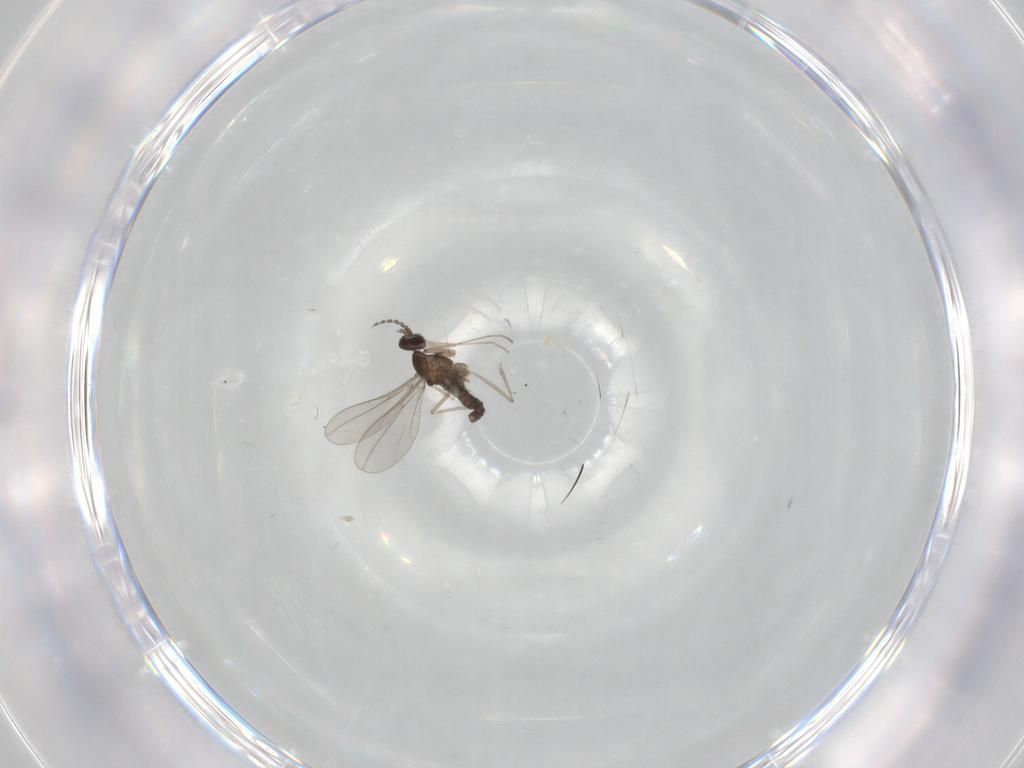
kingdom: Animalia
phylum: Arthropoda
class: Insecta
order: Diptera
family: Cecidomyiidae
